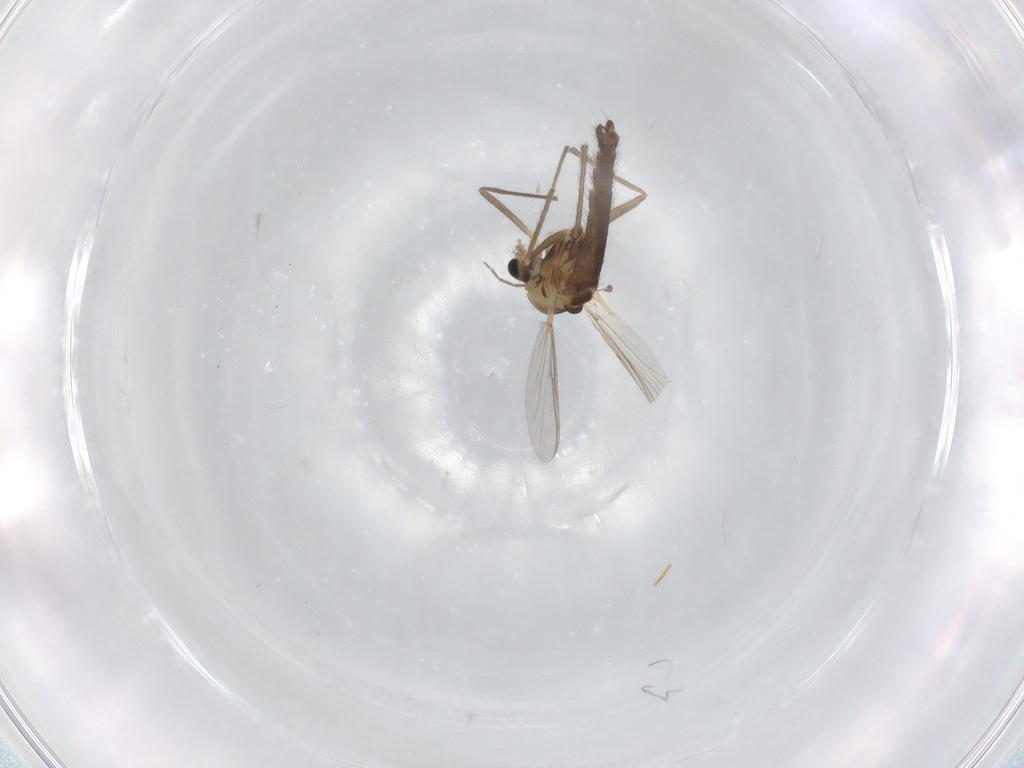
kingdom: Animalia
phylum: Arthropoda
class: Insecta
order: Diptera
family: Chironomidae
